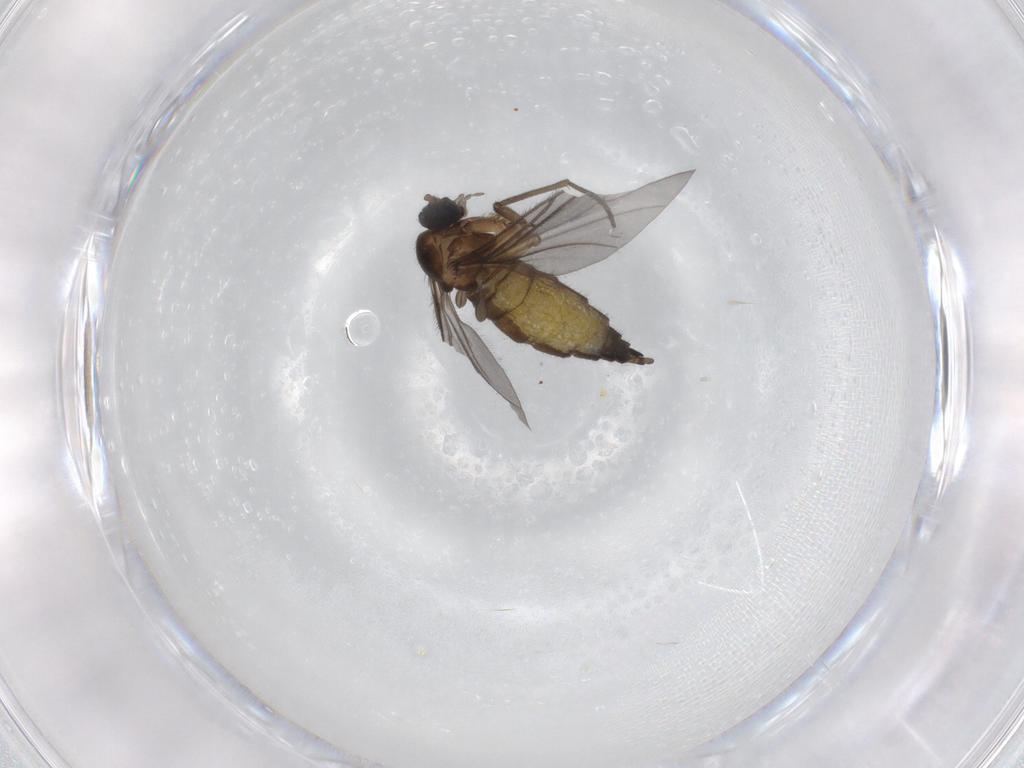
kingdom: Animalia
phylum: Arthropoda
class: Insecta
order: Diptera
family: Sciaridae
